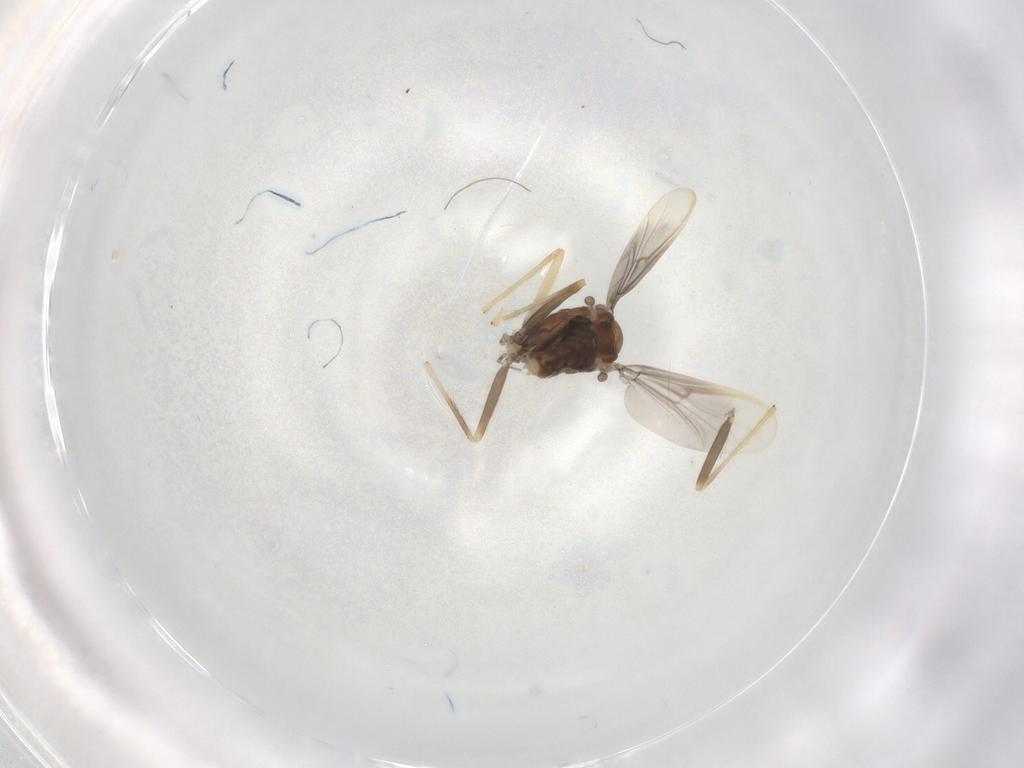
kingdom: Animalia
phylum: Arthropoda
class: Insecta
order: Diptera
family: Chironomidae
